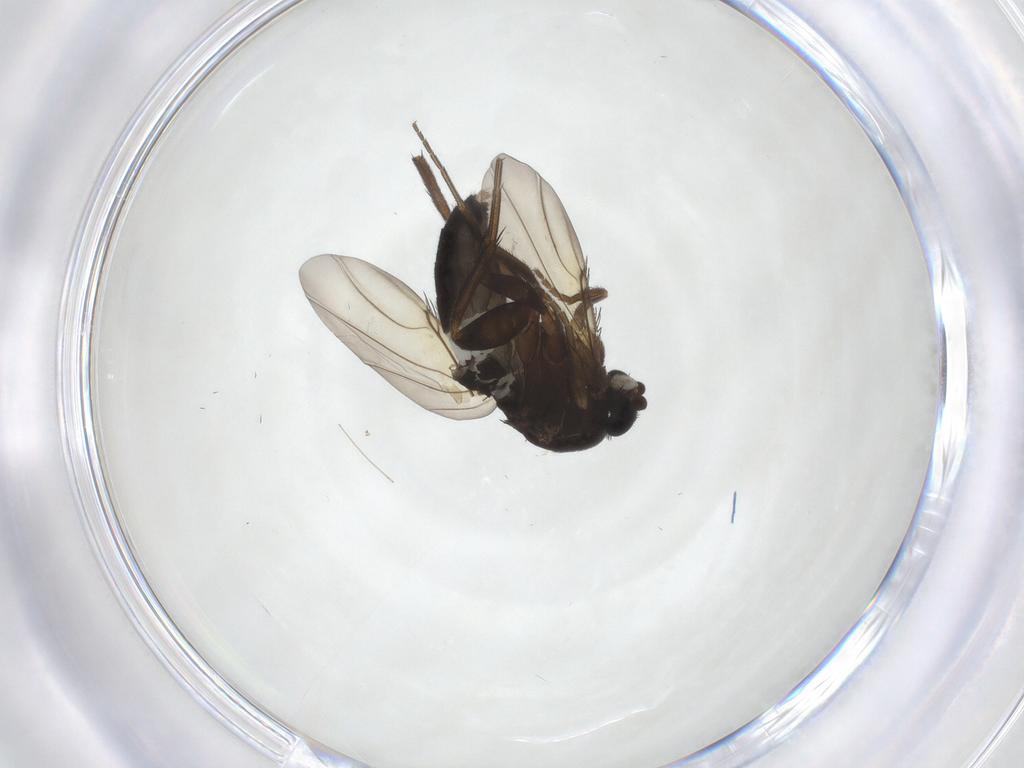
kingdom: Animalia
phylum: Arthropoda
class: Insecta
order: Diptera
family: Phoridae
